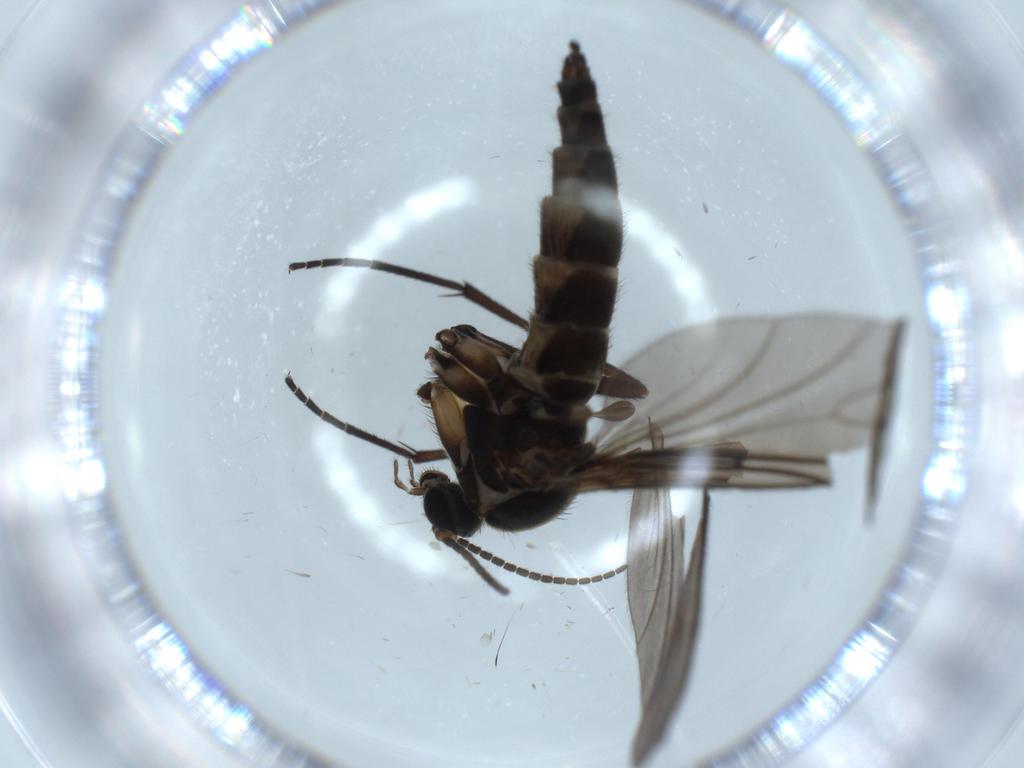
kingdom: Animalia
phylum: Arthropoda
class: Insecta
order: Diptera
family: Sciaridae
